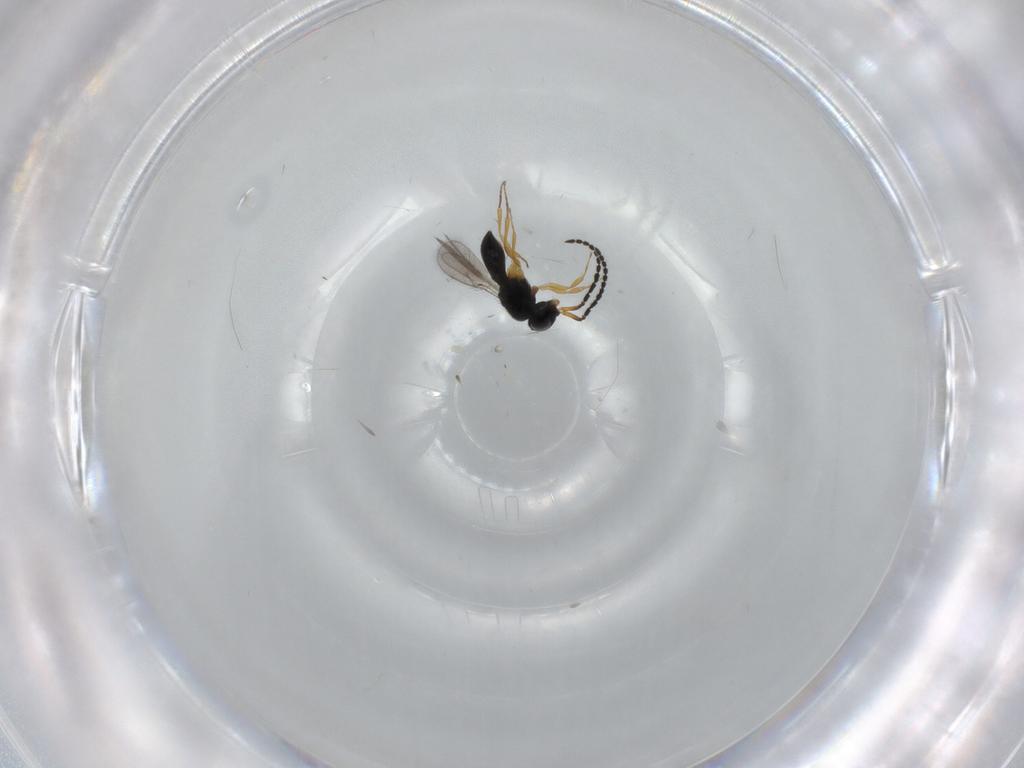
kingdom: Animalia
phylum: Arthropoda
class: Insecta
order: Hymenoptera
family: Scelionidae
